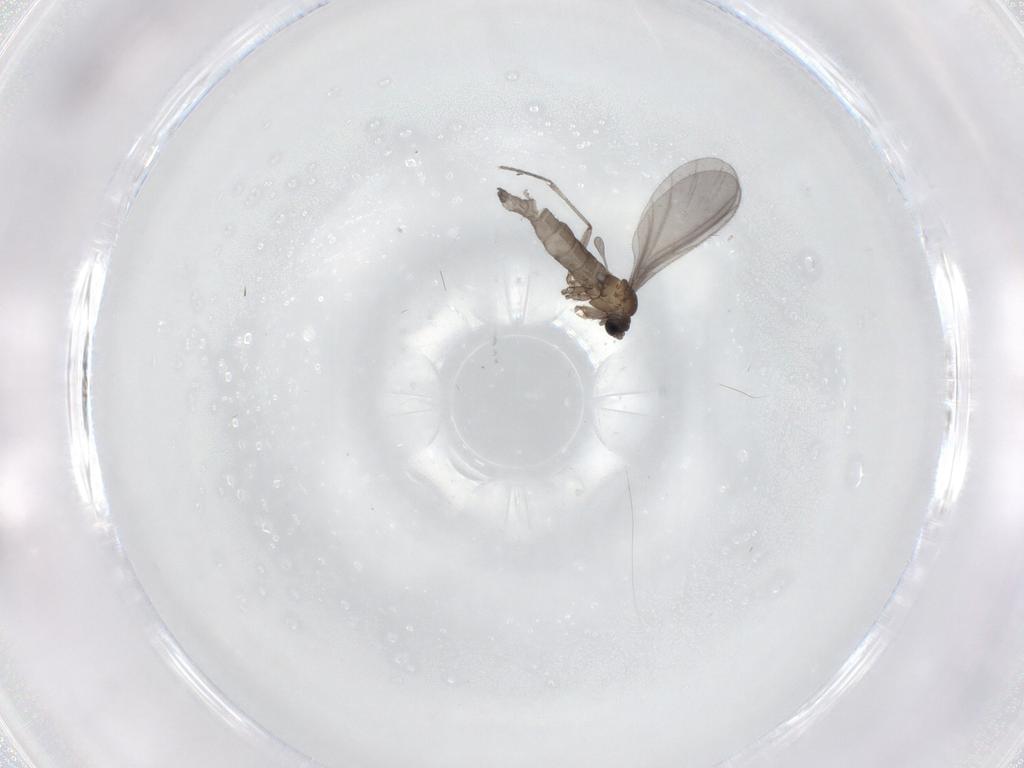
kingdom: Animalia
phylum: Arthropoda
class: Insecta
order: Diptera
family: Sciaridae
